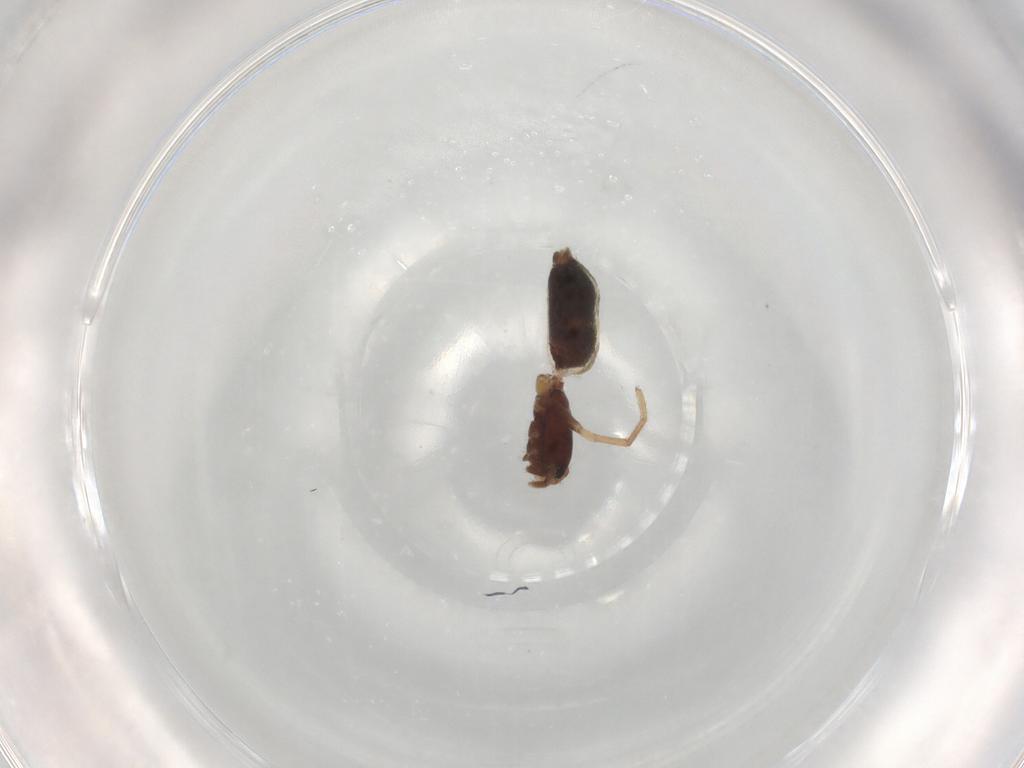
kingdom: Animalia
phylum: Arthropoda
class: Arachnida
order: Araneae
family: Gnaphosidae
